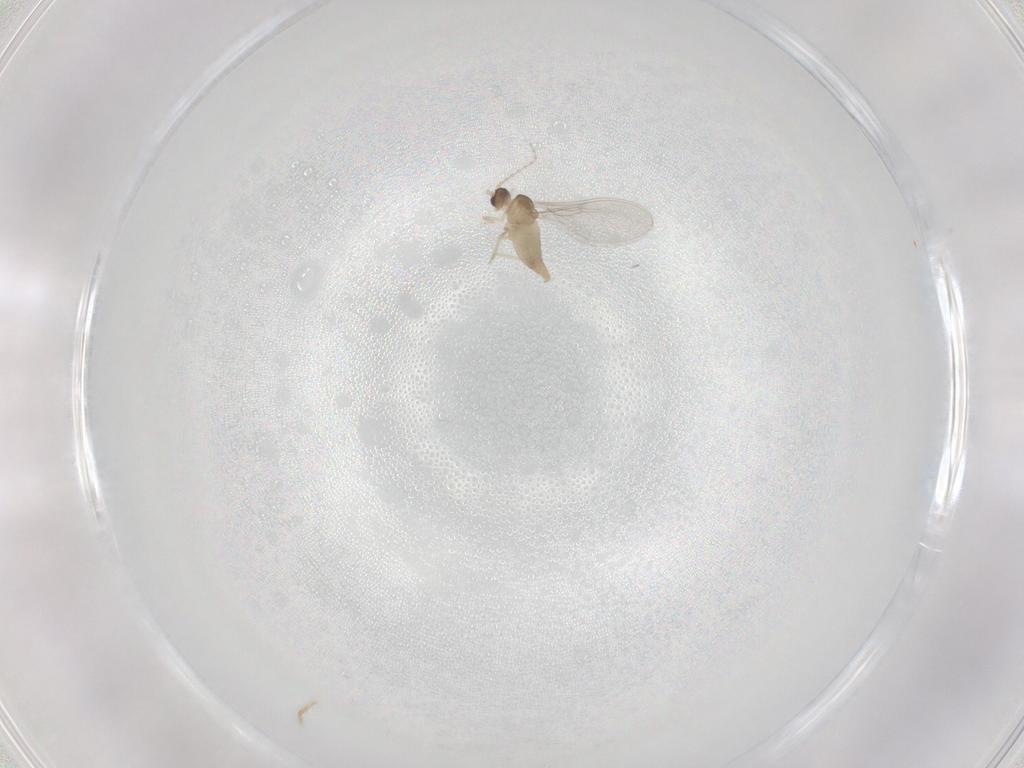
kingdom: Animalia
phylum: Arthropoda
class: Insecta
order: Diptera
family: Cecidomyiidae
